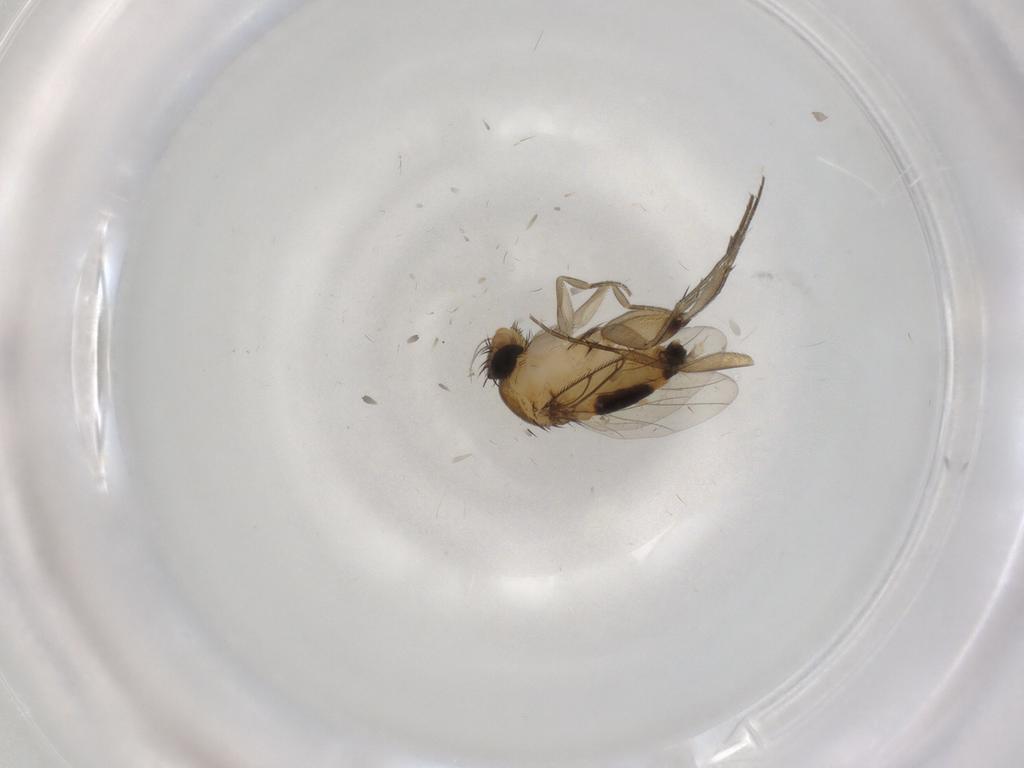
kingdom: Animalia
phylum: Arthropoda
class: Insecta
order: Diptera
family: Phoridae
